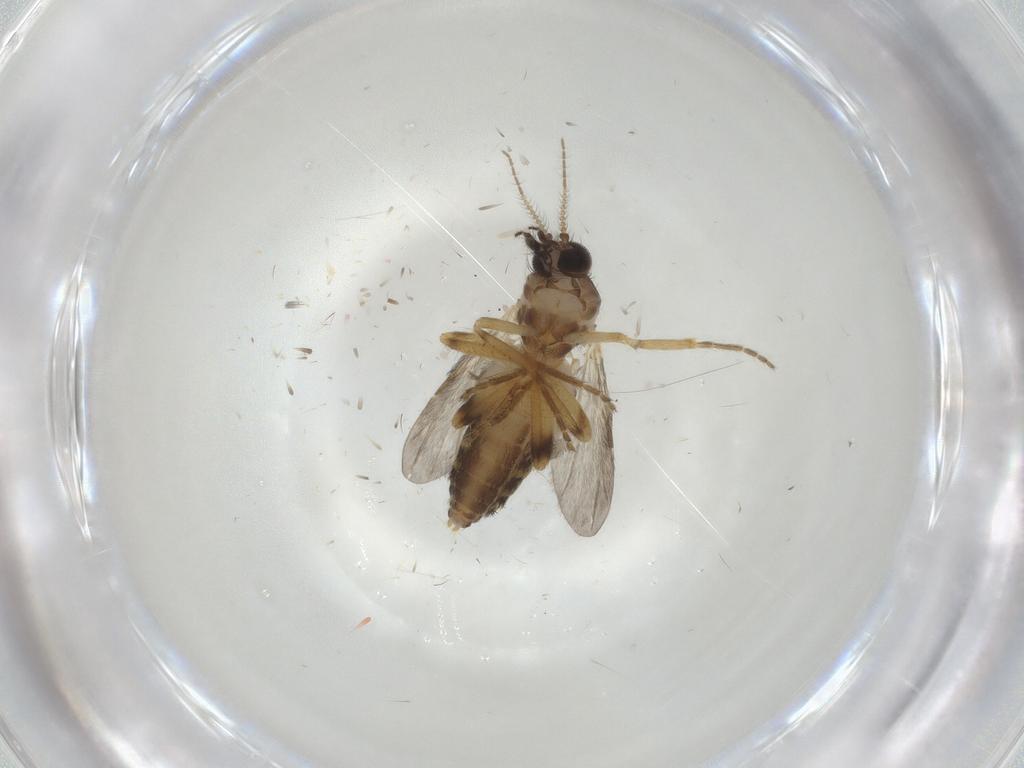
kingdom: Animalia
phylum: Arthropoda
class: Insecta
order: Diptera
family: Ceratopogonidae
